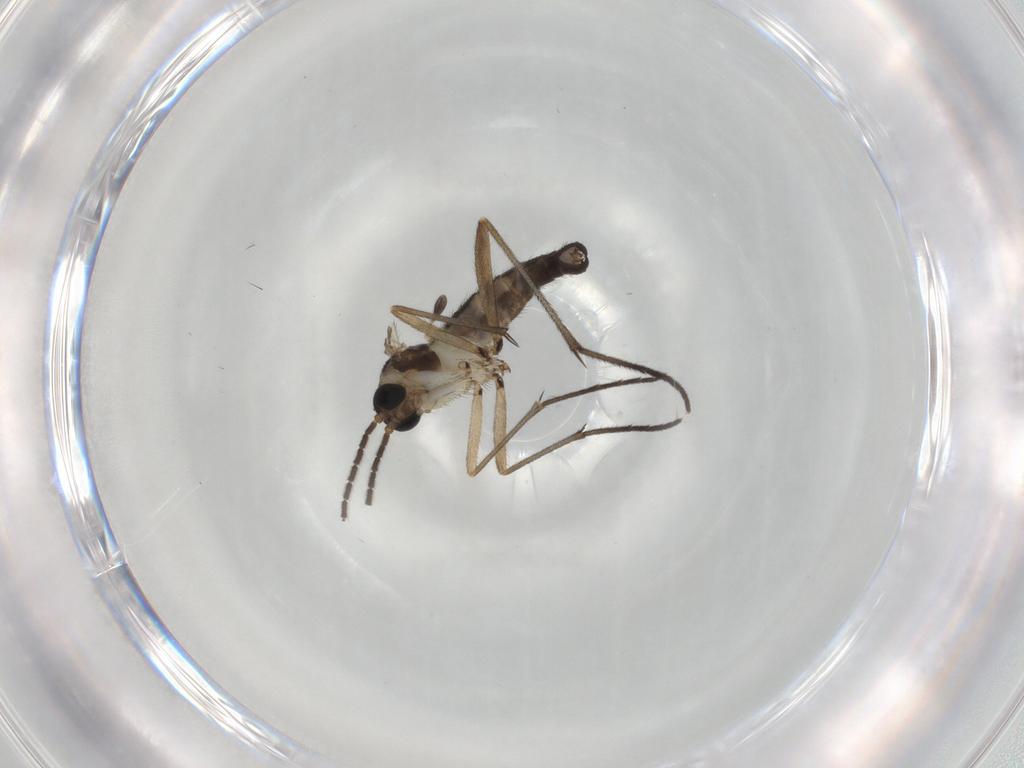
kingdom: Animalia
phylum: Arthropoda
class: Insecta
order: Diptera
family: Sciaridae
